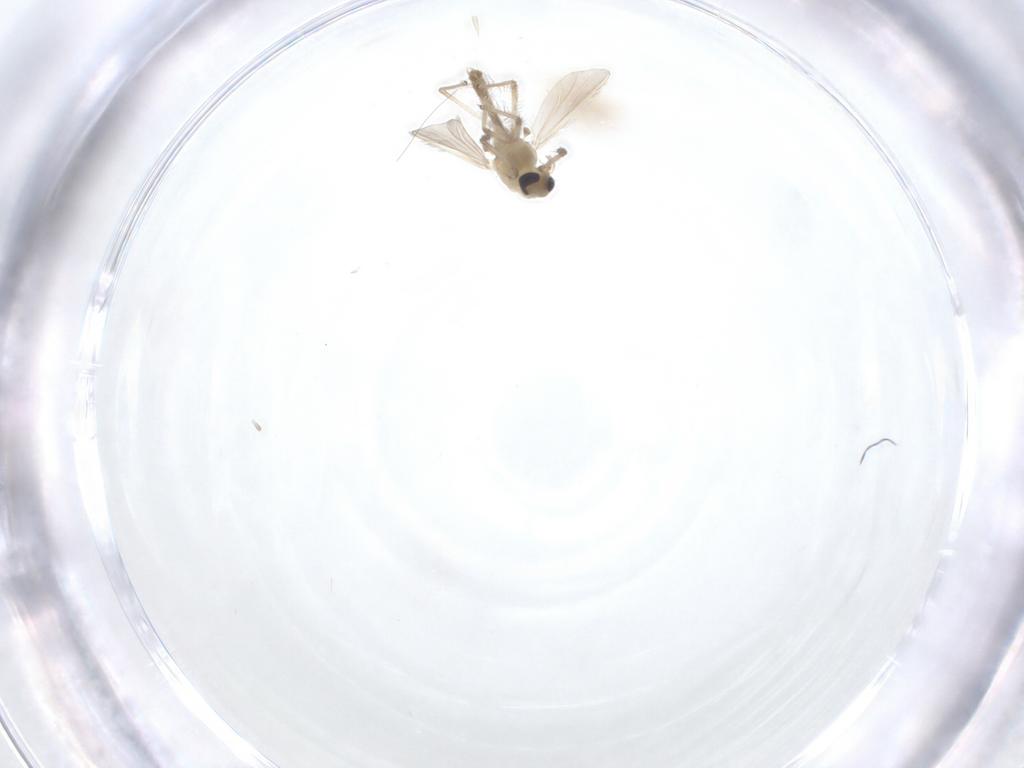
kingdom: Animalia
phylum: Arthropoda
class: Insecta
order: Diptera
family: Chironomidae
